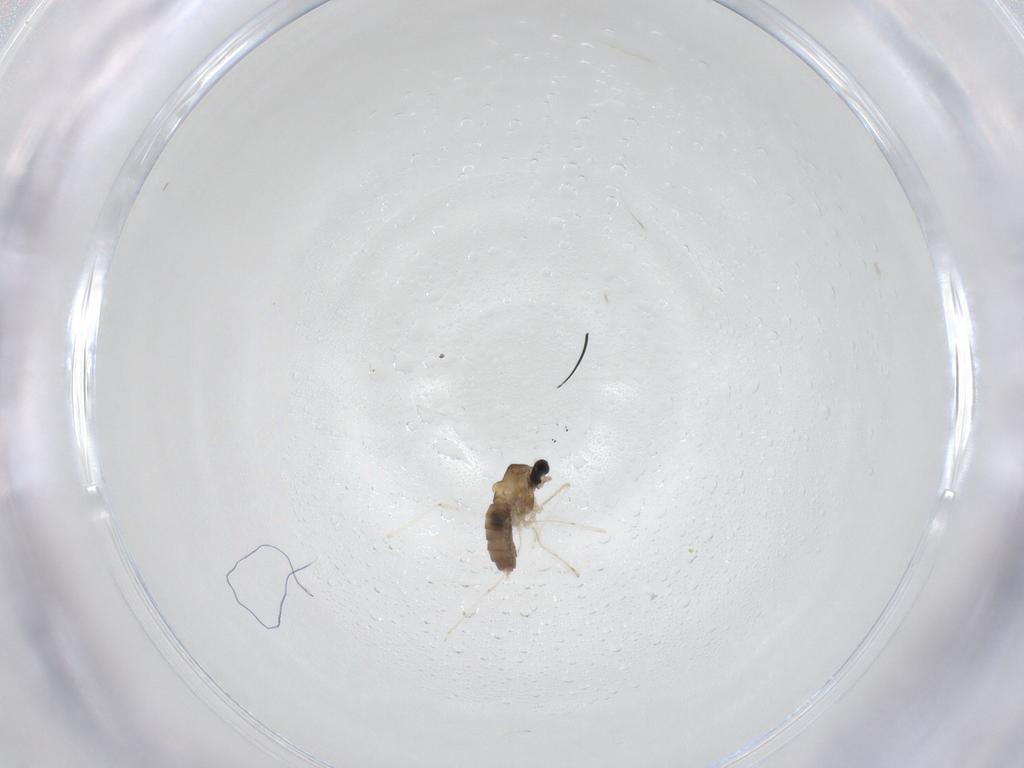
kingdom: Animalia
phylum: Arthropoda
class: Insecta
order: Diptera
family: Cecidomyiidae
